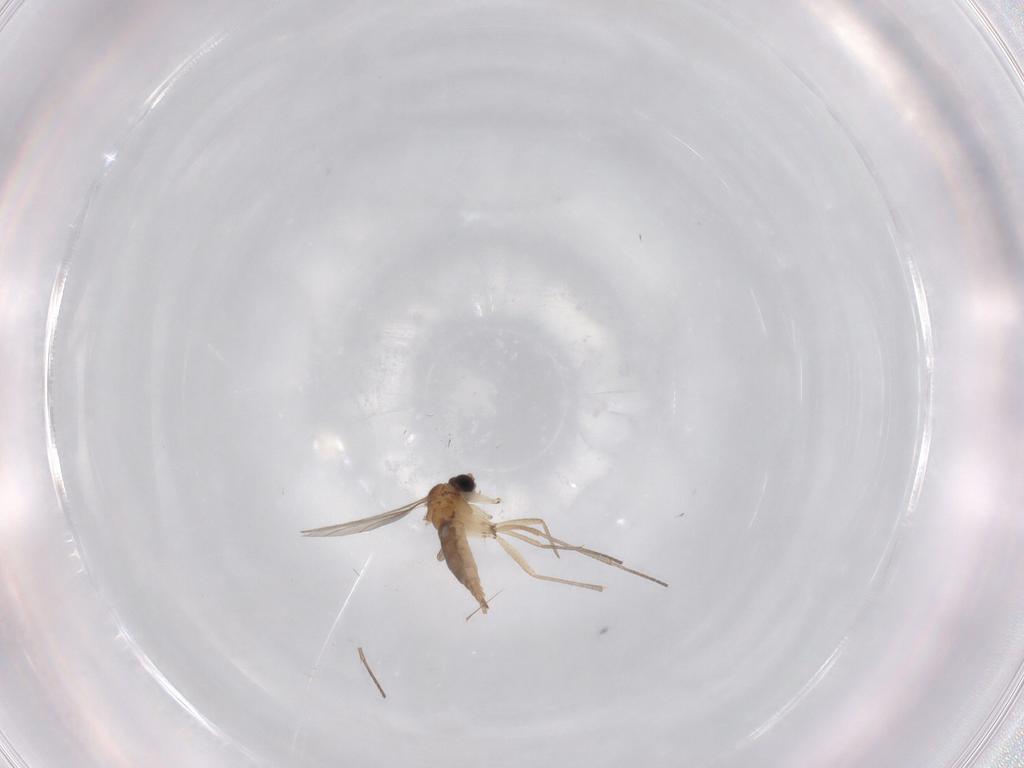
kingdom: Animalia
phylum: Arthropoda
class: Insecta
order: Diptera
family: Sciaridae
